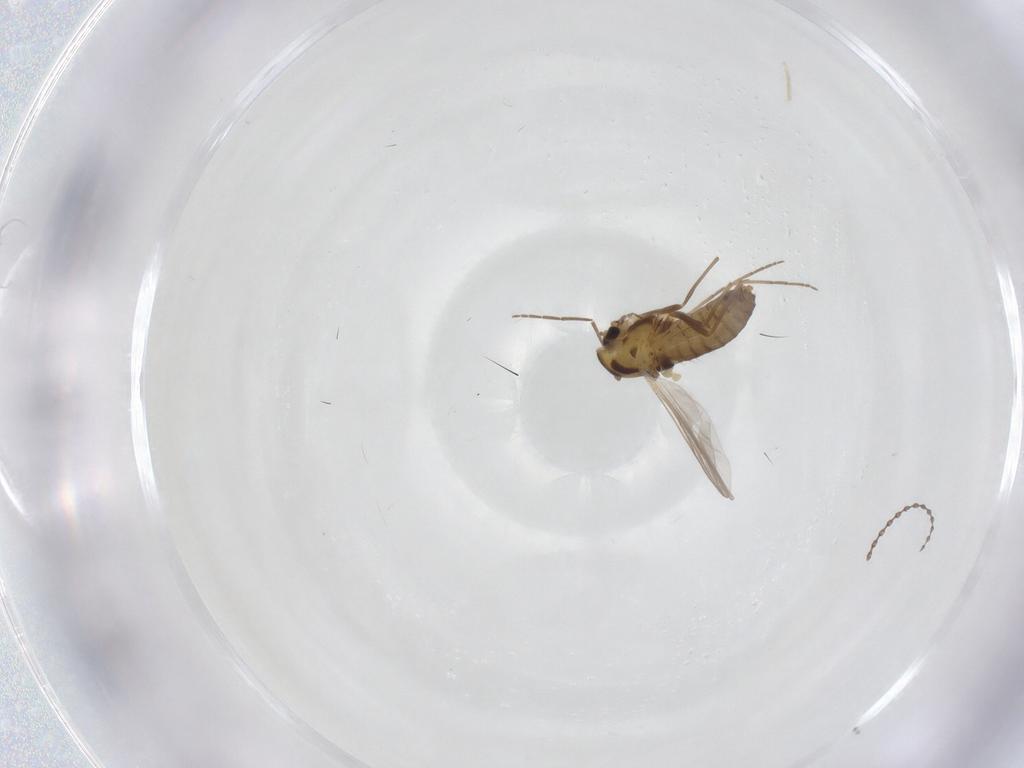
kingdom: Animalia
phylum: Arthropoda
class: Insecta
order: Diptera
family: Cecidomyiidae
